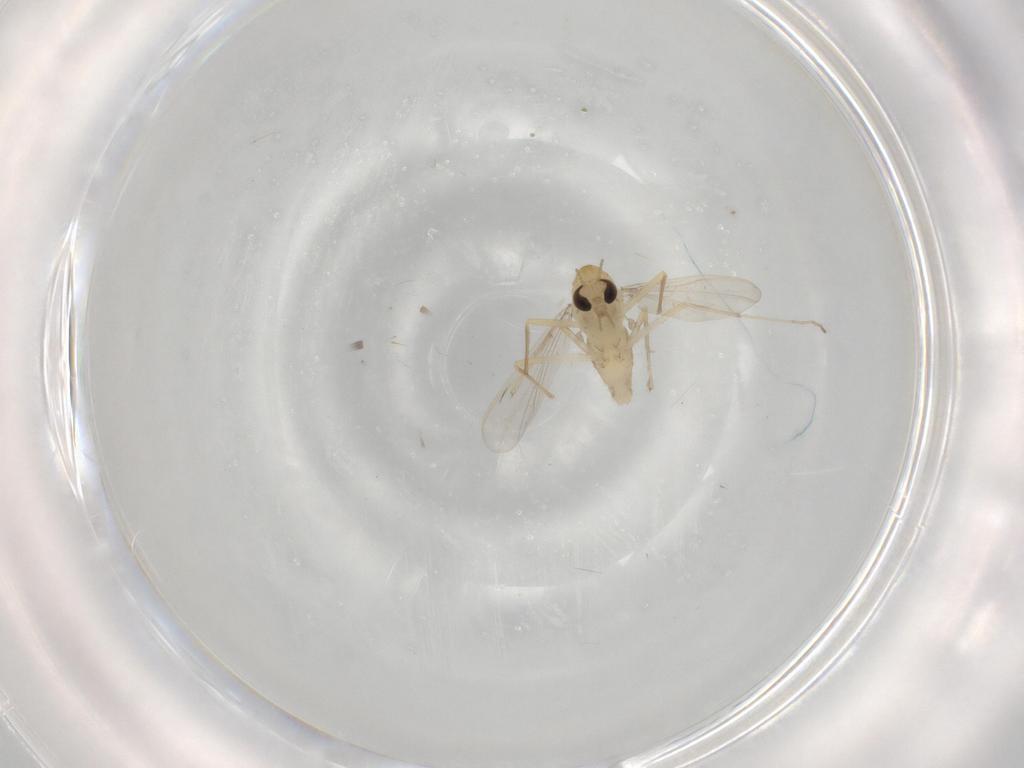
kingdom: Animalia
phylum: Arthropoda
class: Insecta
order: Diptera
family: Chironomidae
